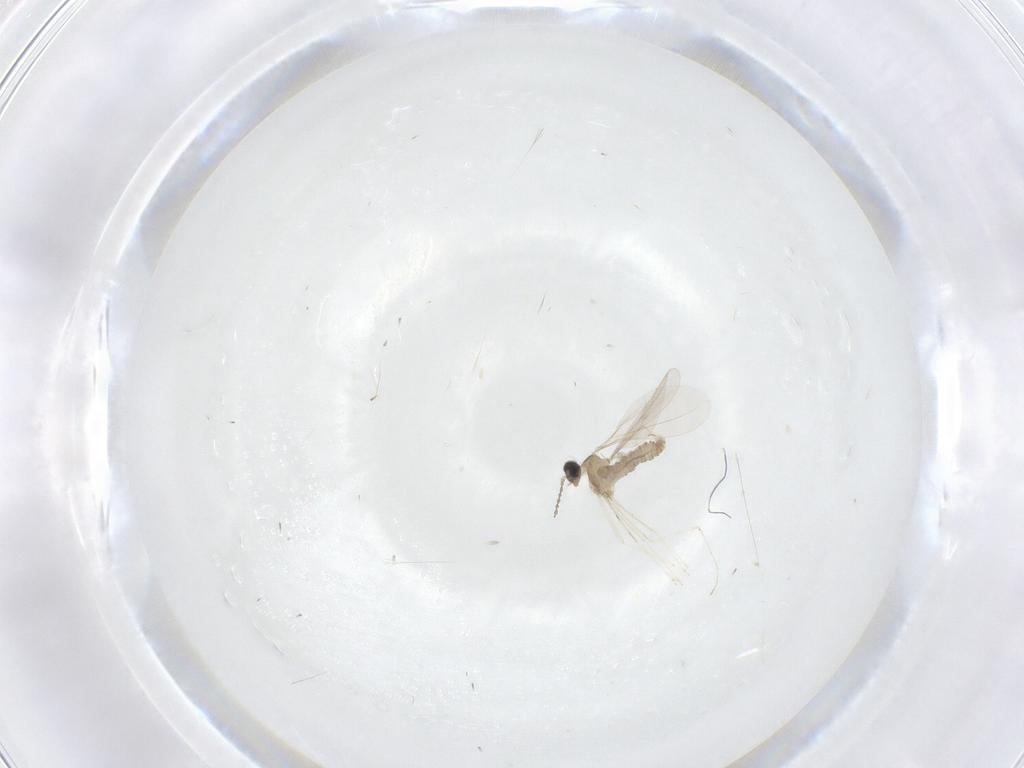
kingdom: Animalia
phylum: Arthropoda
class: Insecta
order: Diptera
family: Cecidomyiidae
